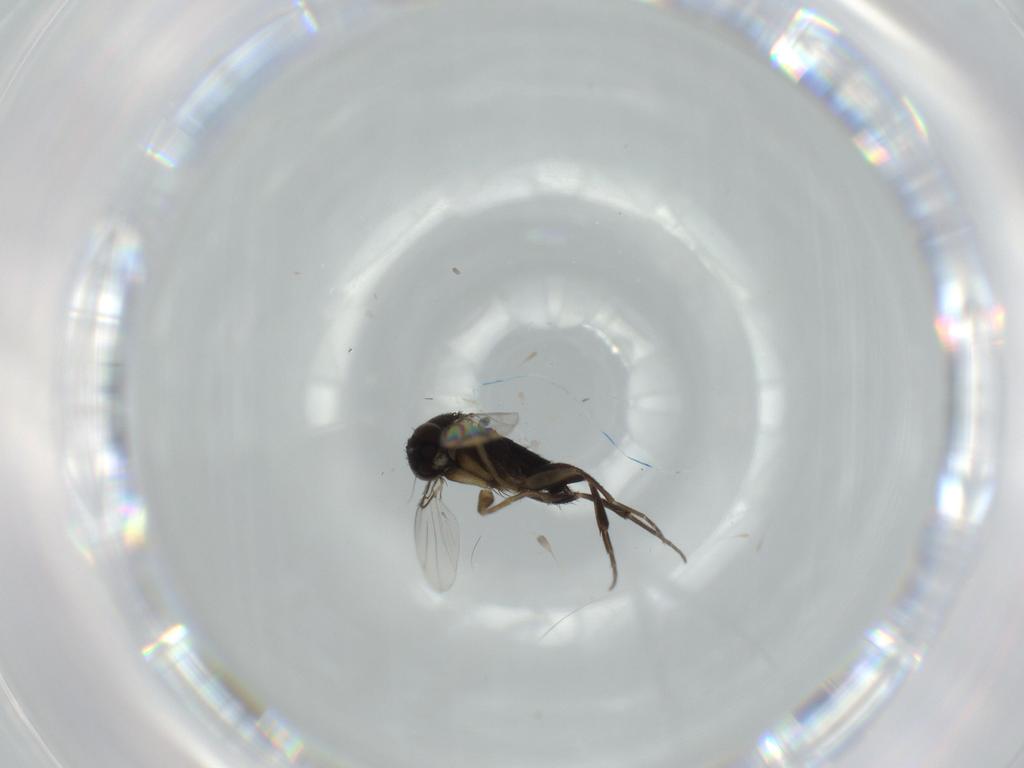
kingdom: Animalia
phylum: Arthropoda
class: Insecta
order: Diptera
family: Phoridae
